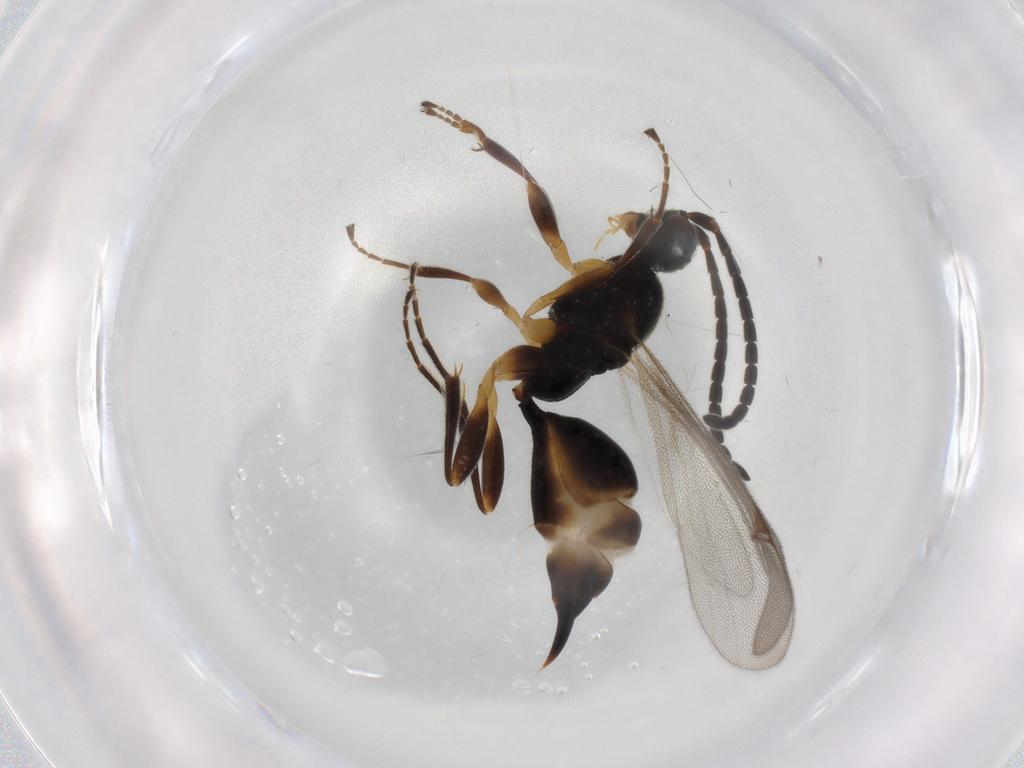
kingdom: Animalia
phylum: Arthropoda
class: Insecta
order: Hymenoptera
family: Proctotrupidae
